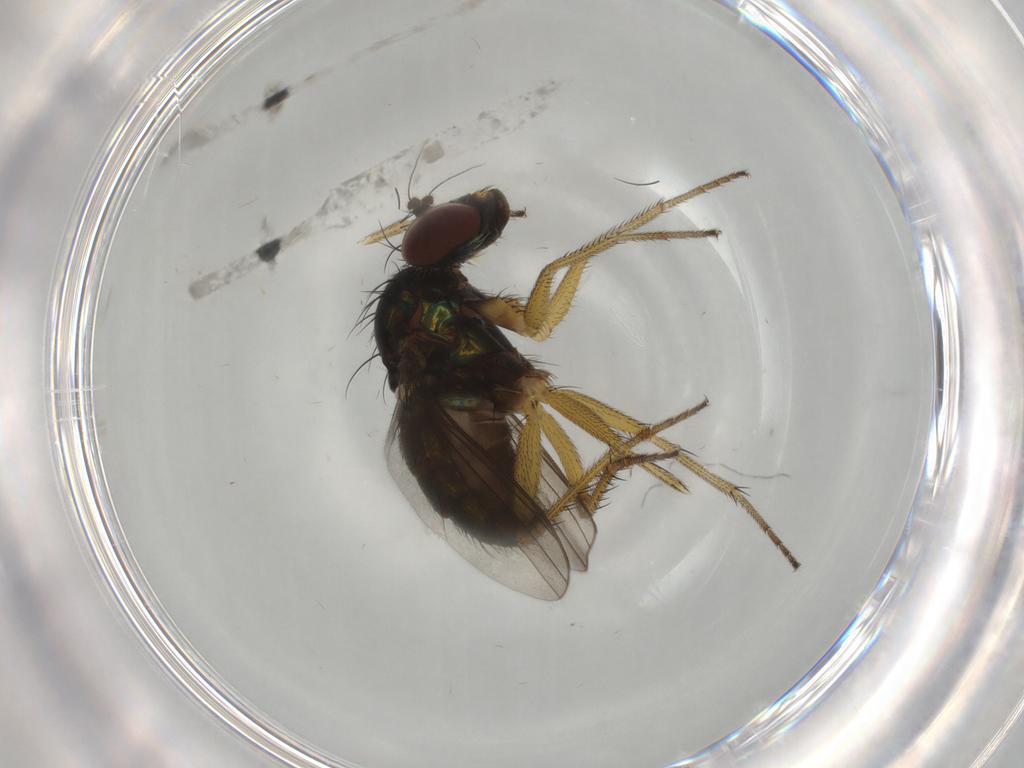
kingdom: Animalia
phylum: Arthropoda
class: Insecta
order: Diptera
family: Dolichopodidae
